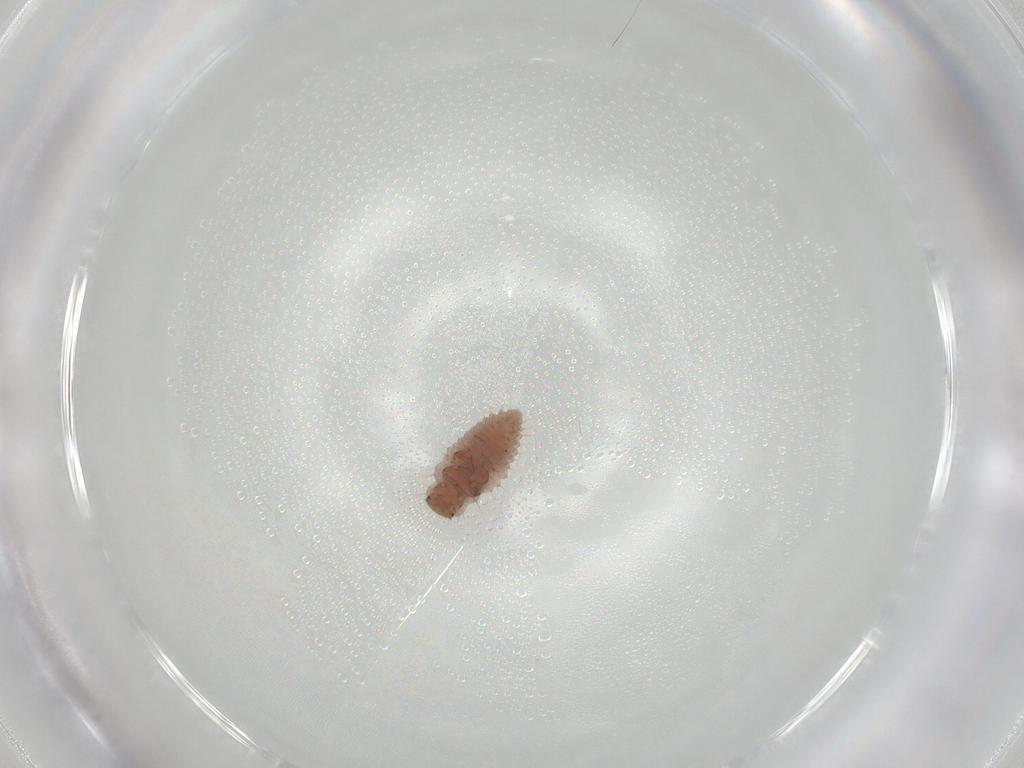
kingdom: Animalia
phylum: Arthropoda
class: Insecta
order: Coleoptera
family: Coccinellidae
